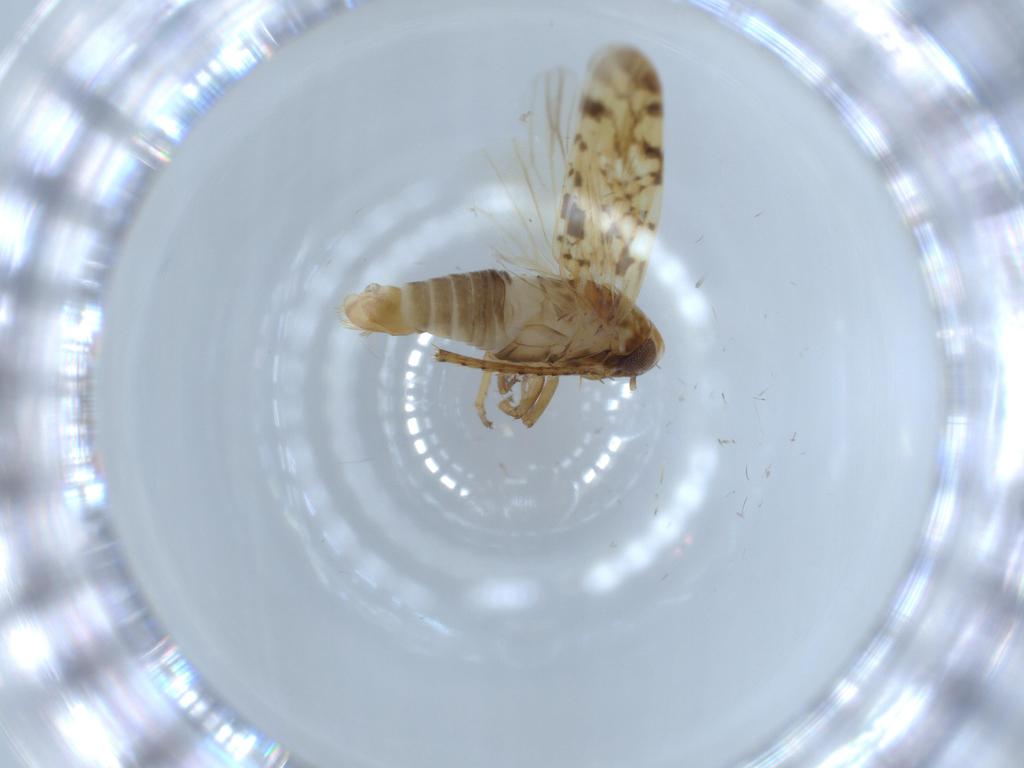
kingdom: Animalia
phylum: Arthropoda
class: Insecta
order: Hemiptera
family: Cicadellidae
